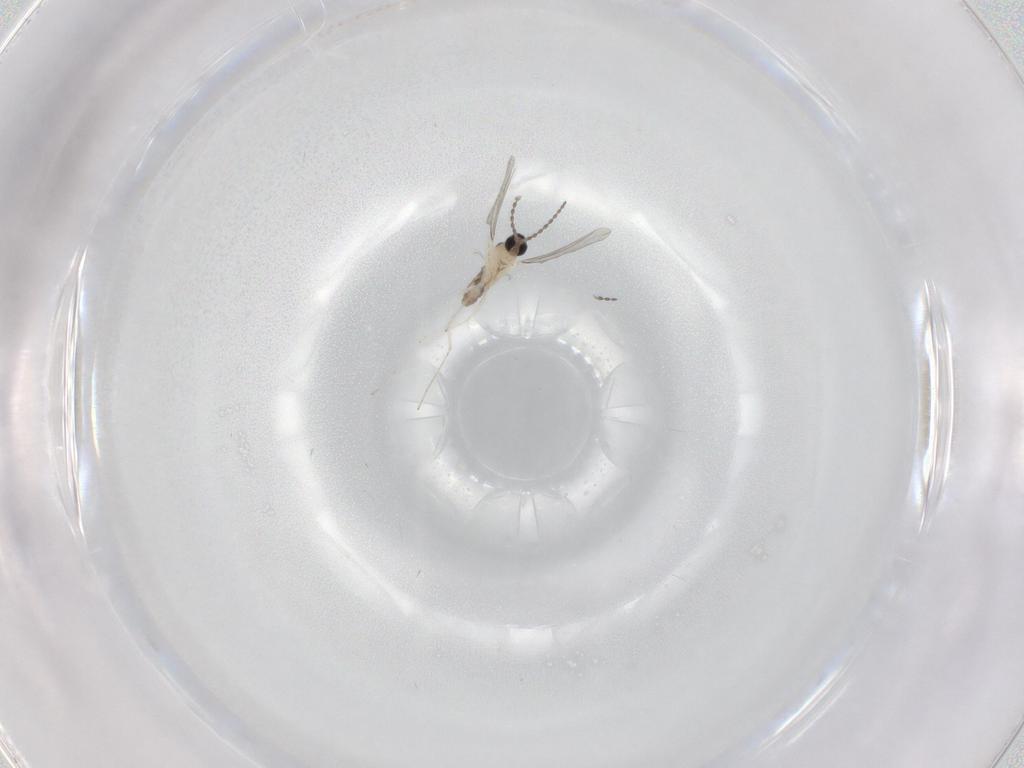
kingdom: Animalia
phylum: Arthropoda
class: Insecta
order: Diptera
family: Cecidomyiidae
